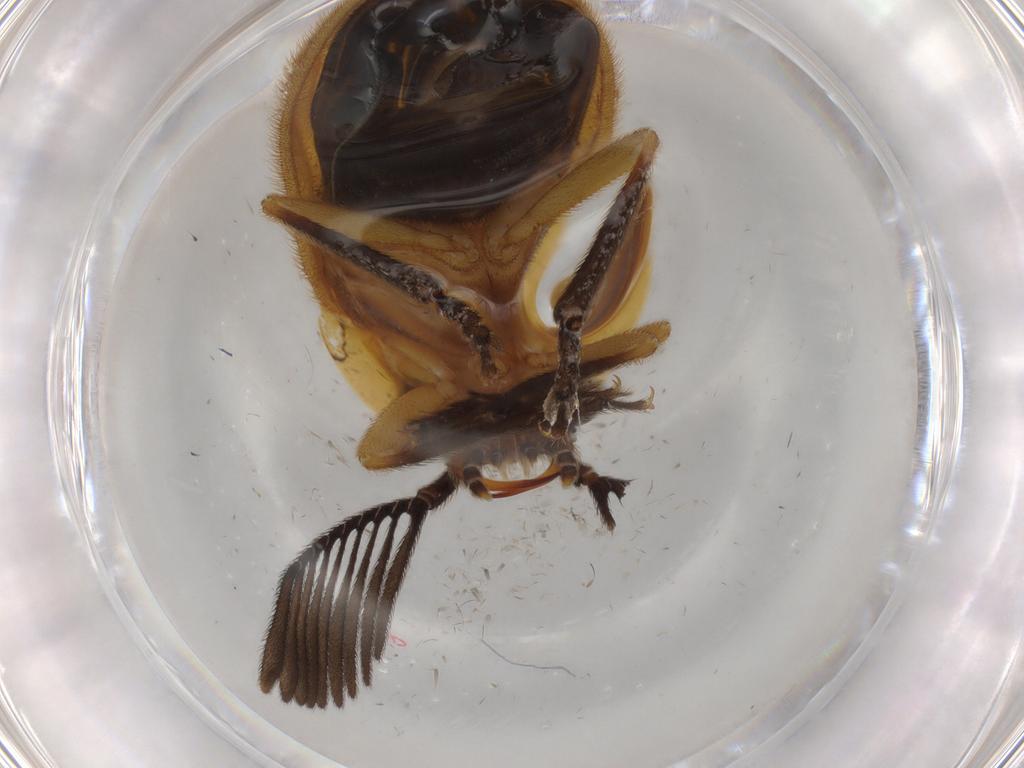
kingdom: Animalia
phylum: Arthropoda
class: Insecta
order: Coleoptera
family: Lampyridae
